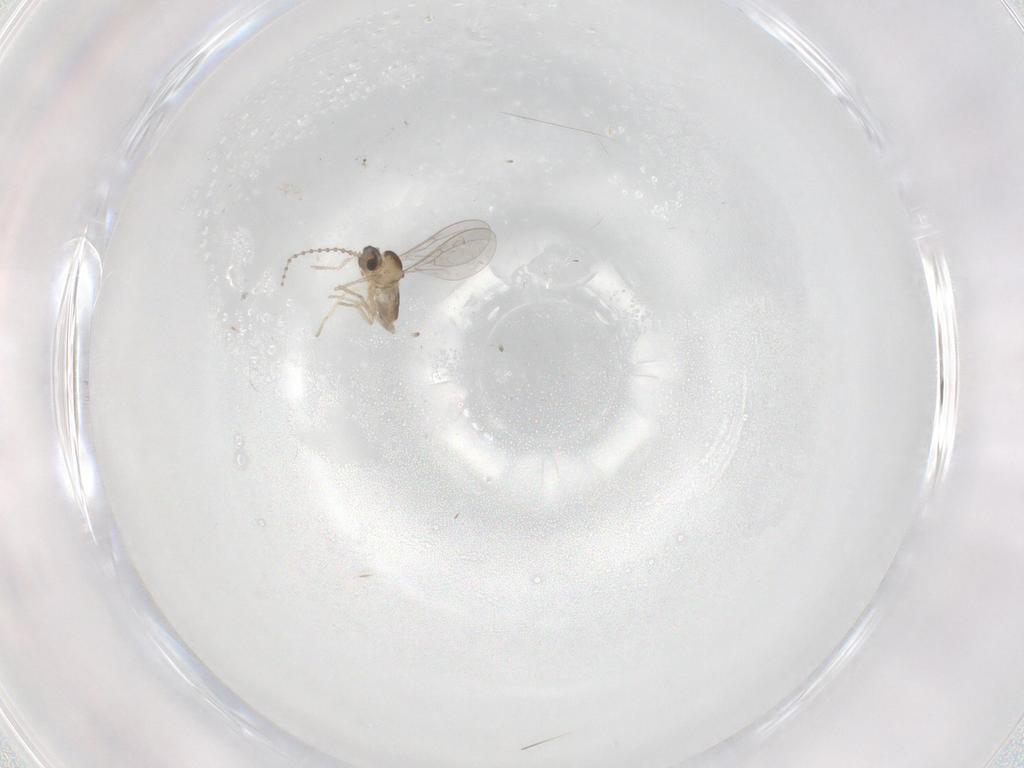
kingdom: Animalia
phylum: Arthropoda
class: Insecta
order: Diptera
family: Cecidomyiidae
